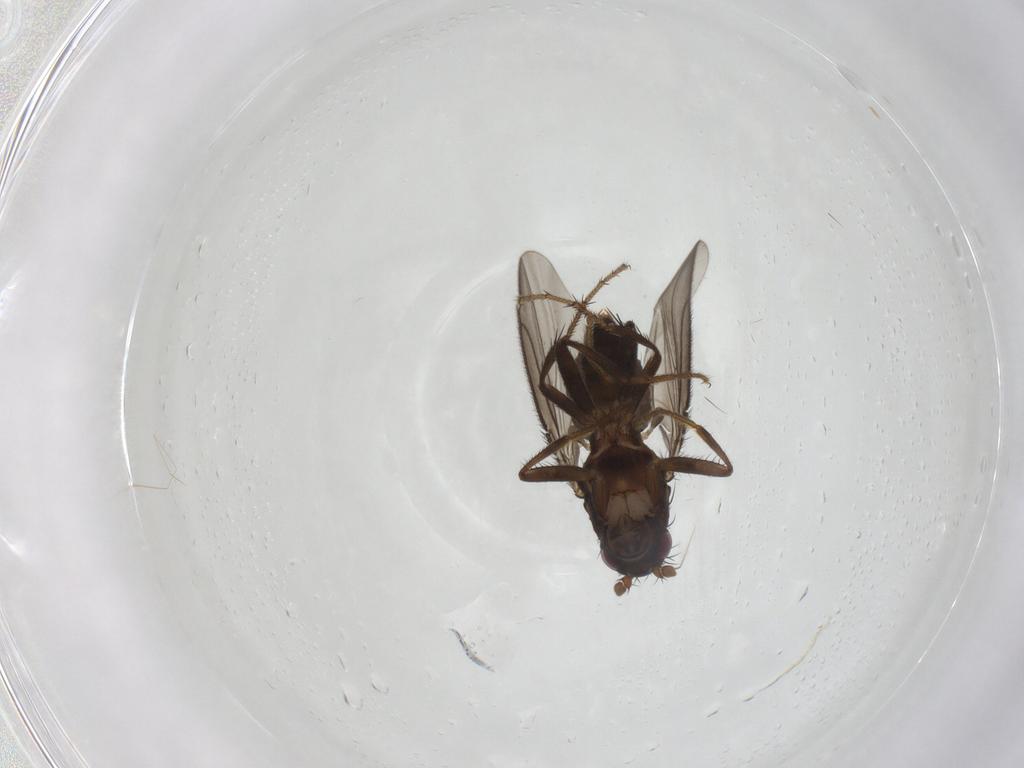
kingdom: Animalia
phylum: Arthropoda
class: Insecta
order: Diptera
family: Sphaeroceridae
